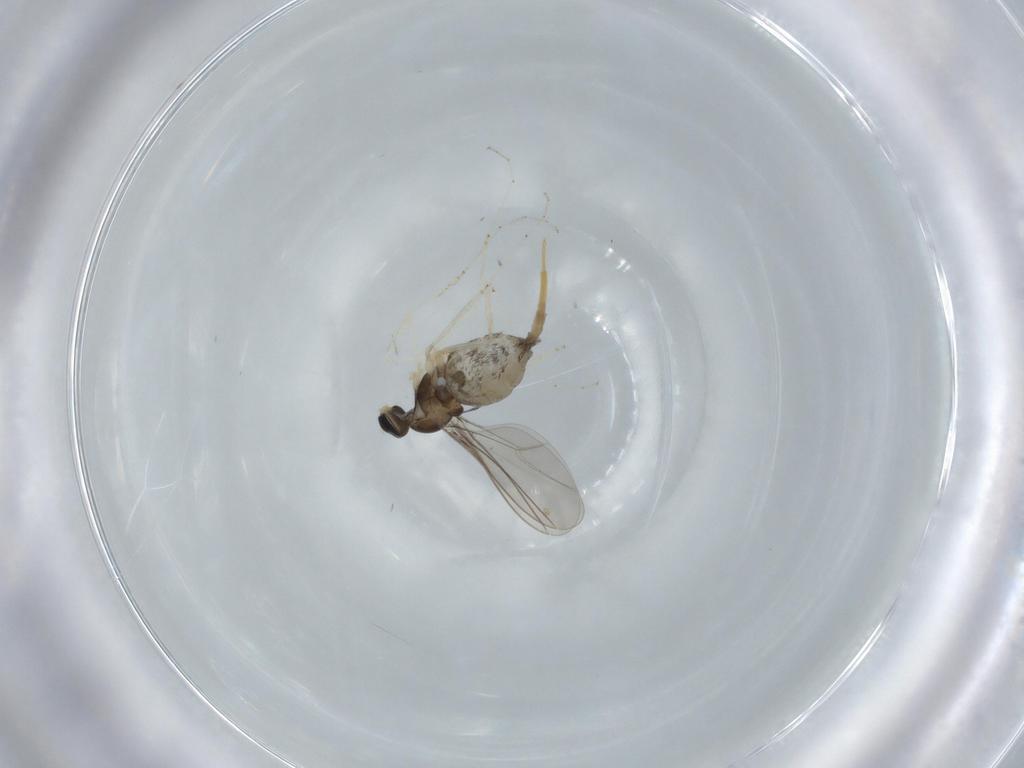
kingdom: Animalia
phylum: Arthropoda
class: Insecta
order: Diptera
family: Cecidomyiidae
